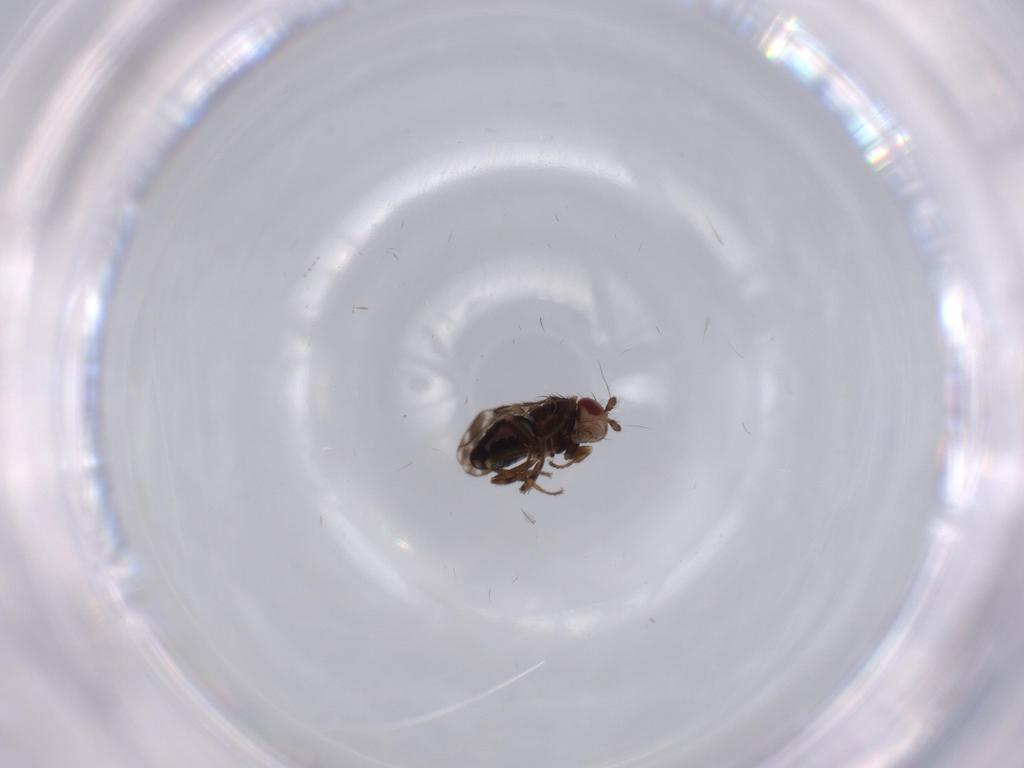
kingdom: Animalia
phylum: Arthropoda
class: Insecta
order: Diptera
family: Sphaeroceridae
